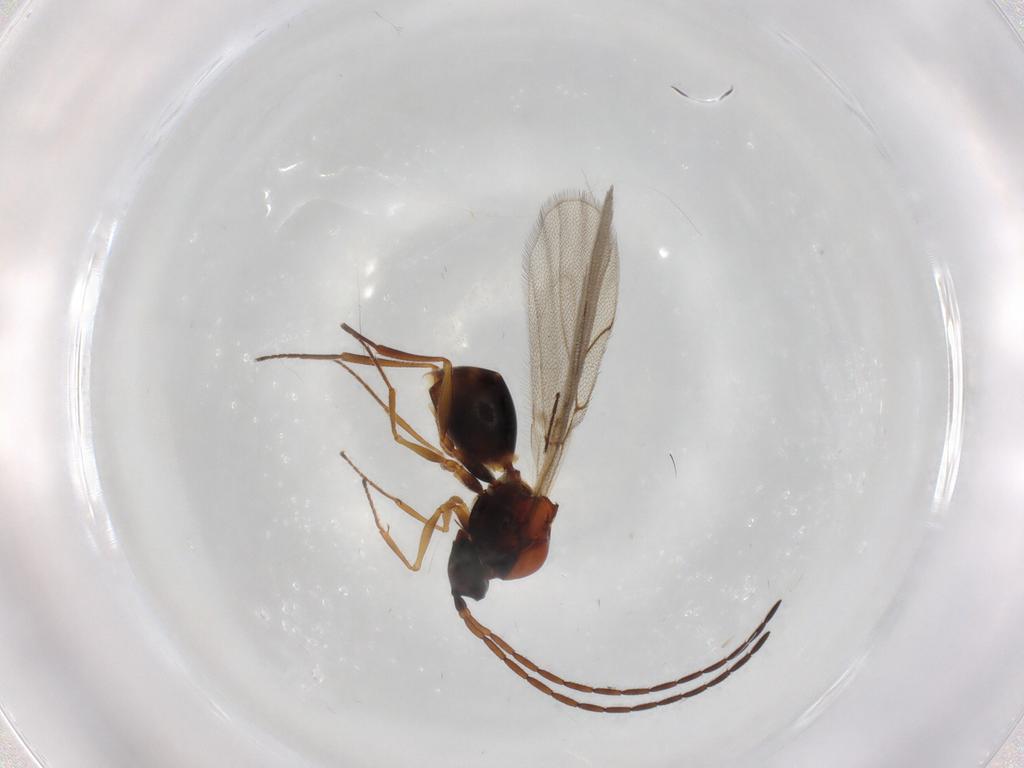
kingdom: Animalia
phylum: Arthropoda
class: Insecta
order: Hymenoptera
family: Figitidae
